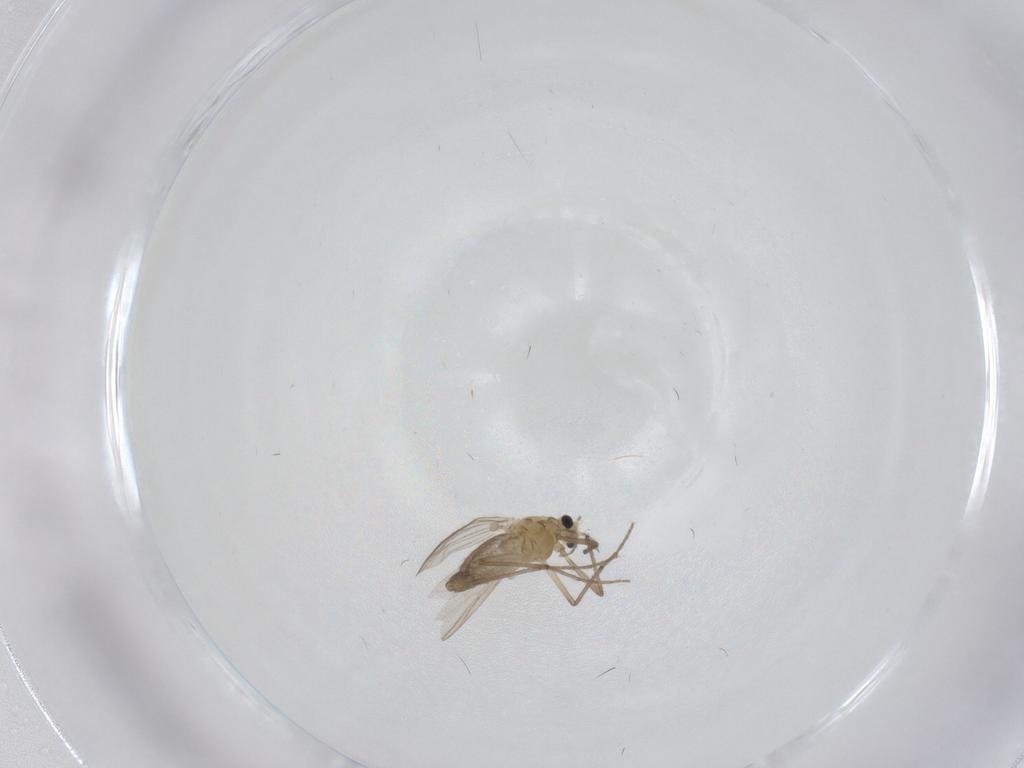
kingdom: Animalia
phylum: Arthropoda
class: Insecta
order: Diptera
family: Chironomidae
